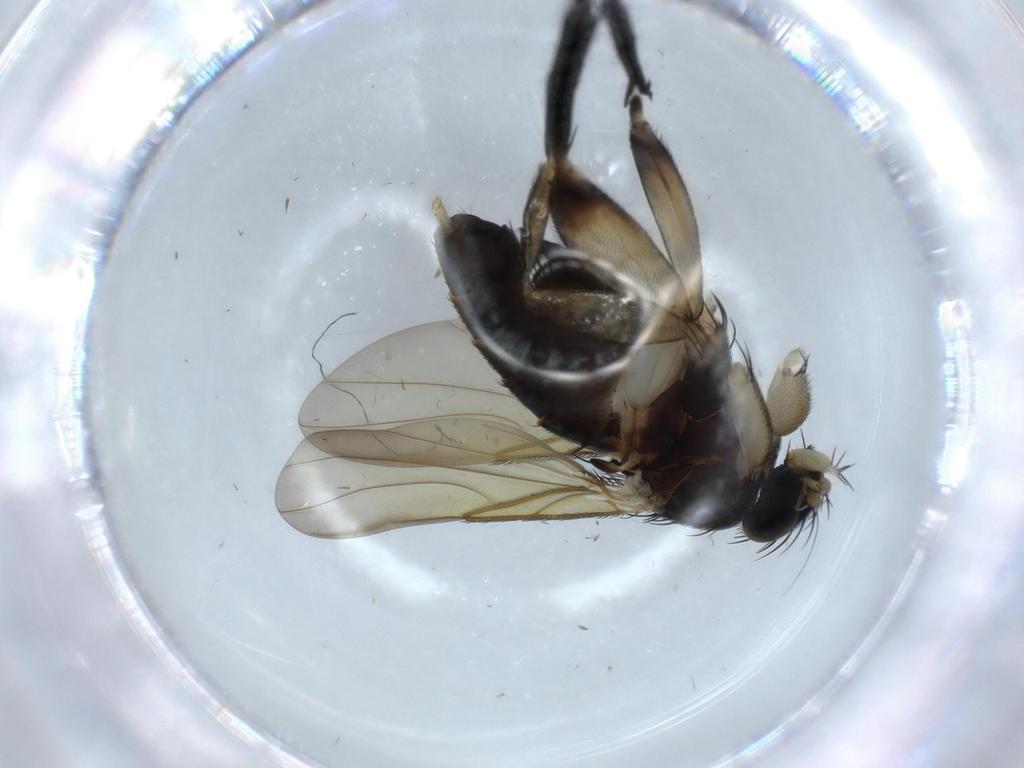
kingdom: Animalia
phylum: Arthropoda
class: Insecta
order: Diptera
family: Phoridae
